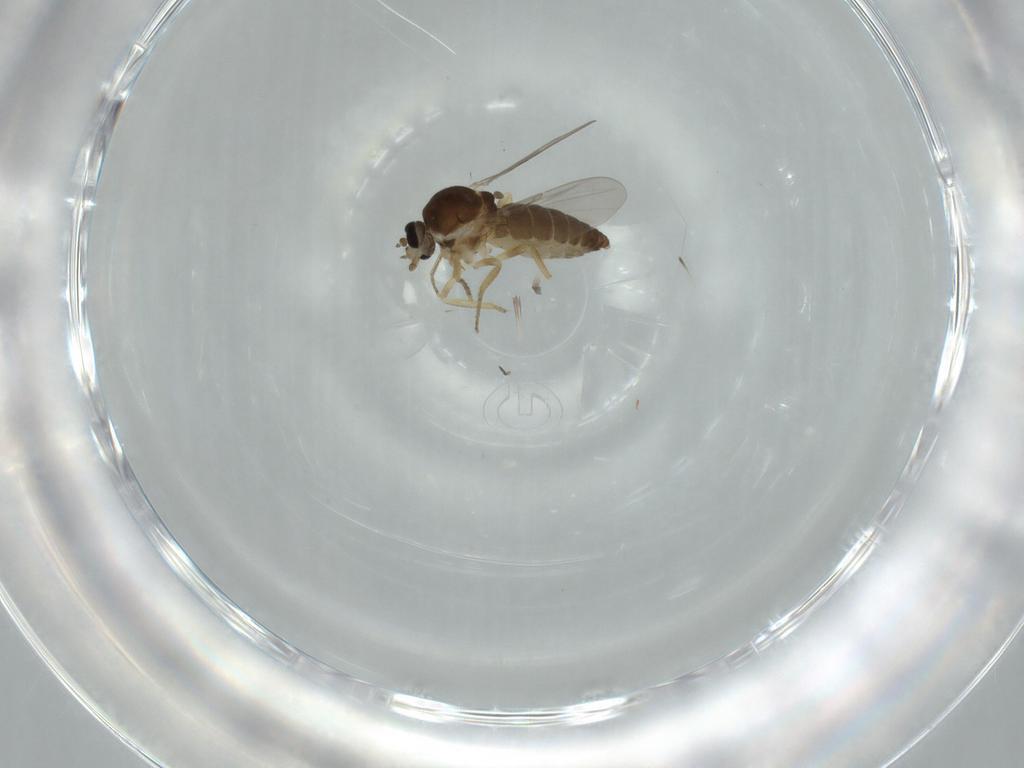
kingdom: Animalia
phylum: Arthropoda
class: Insecta
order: Diptera
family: Ceratopogonidae
